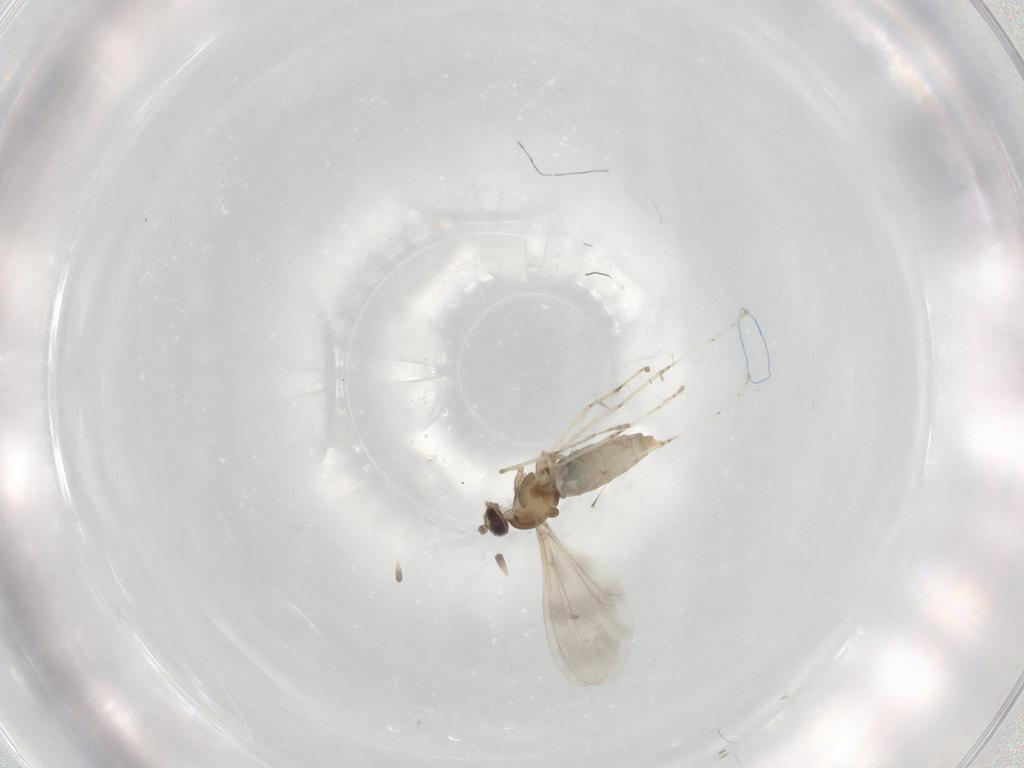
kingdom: Animalia
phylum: Arthropoda
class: Insecta
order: Diptera
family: Cecidomyiidae
